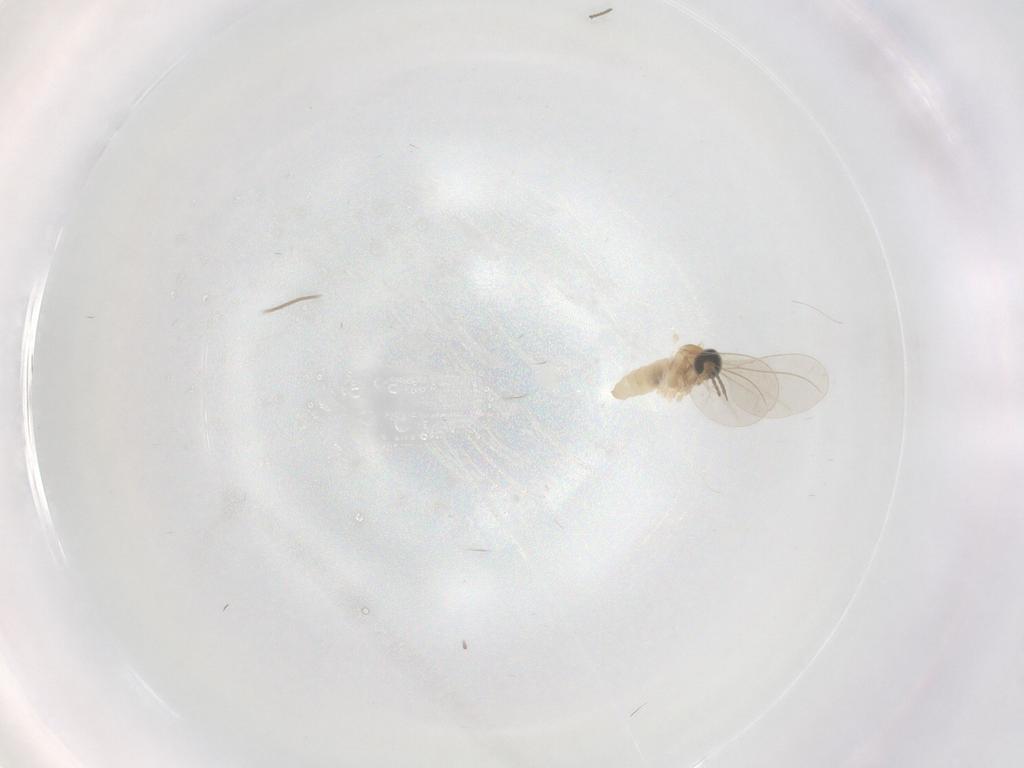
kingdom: Animalia
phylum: Arthropoda
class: Insecta
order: Diptera
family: Cecidomyiidae
